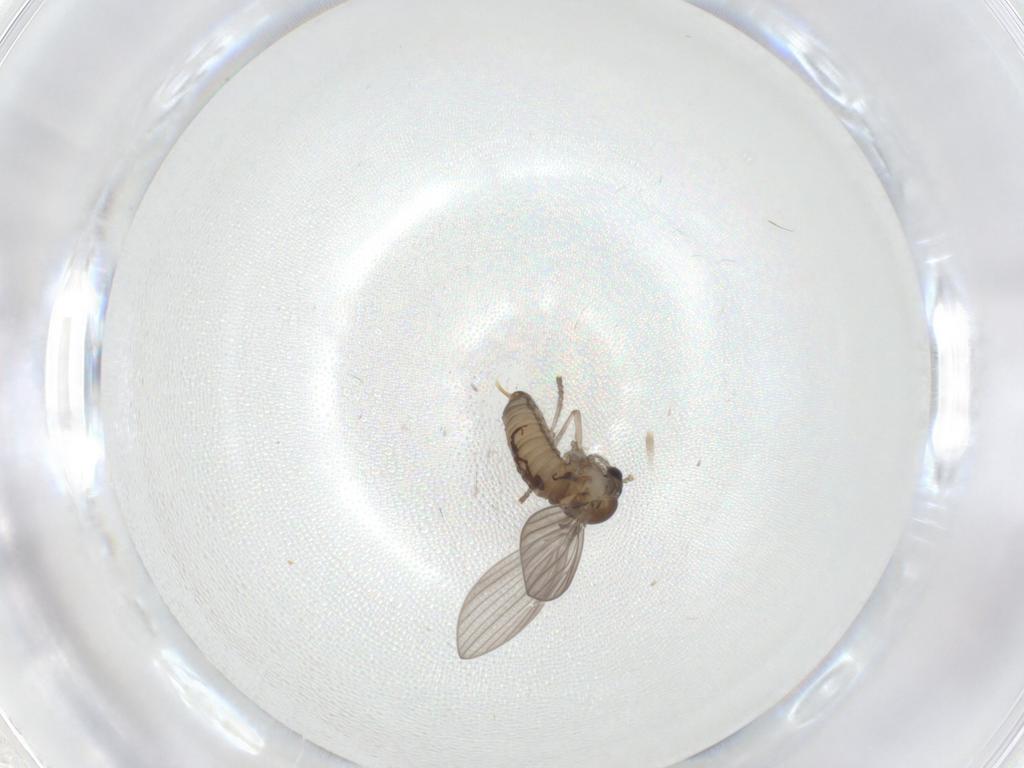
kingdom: Animalia
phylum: Arthropoda
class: Insecta
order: Diptera
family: Psychodidae
